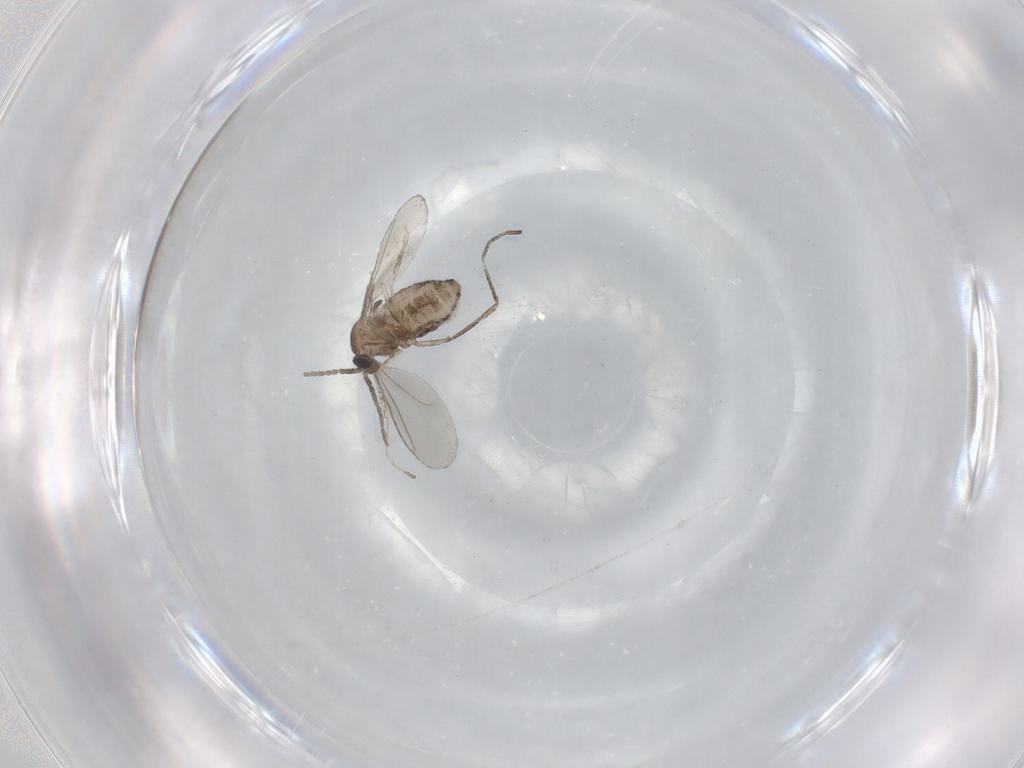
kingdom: Animalia
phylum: Arthropoda
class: Insecta
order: Diptera
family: Cecidomyiidae
